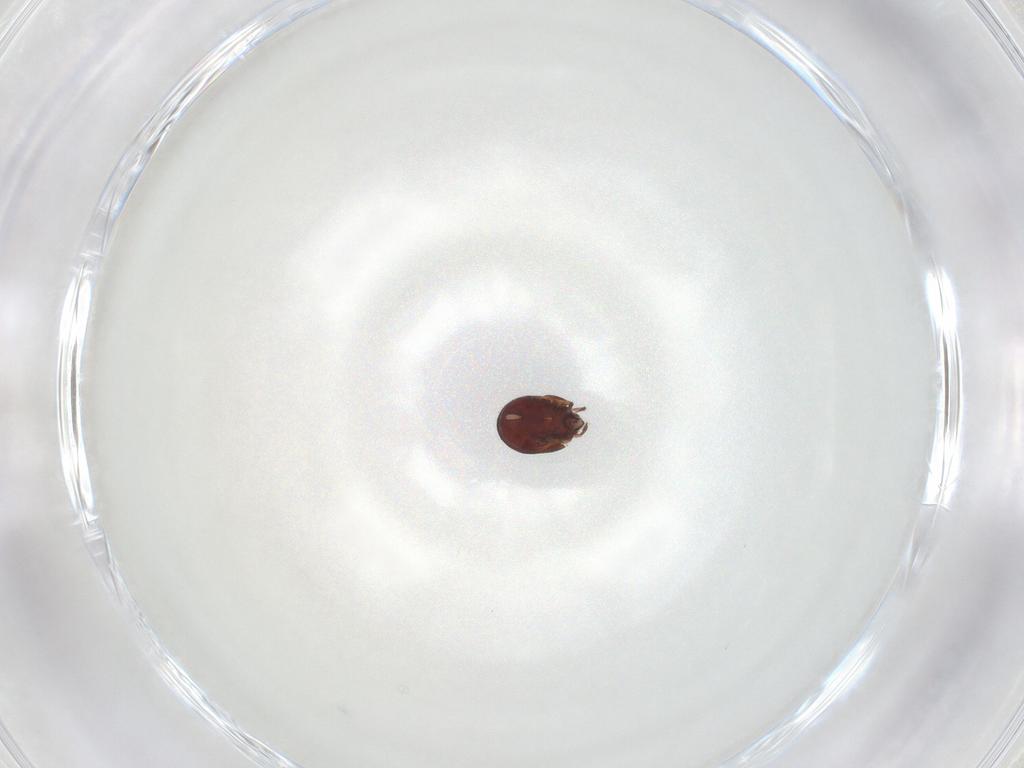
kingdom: Animalia
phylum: Arthropoda
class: Arachnida
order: Sarcoptiformes
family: Humerobatidae
